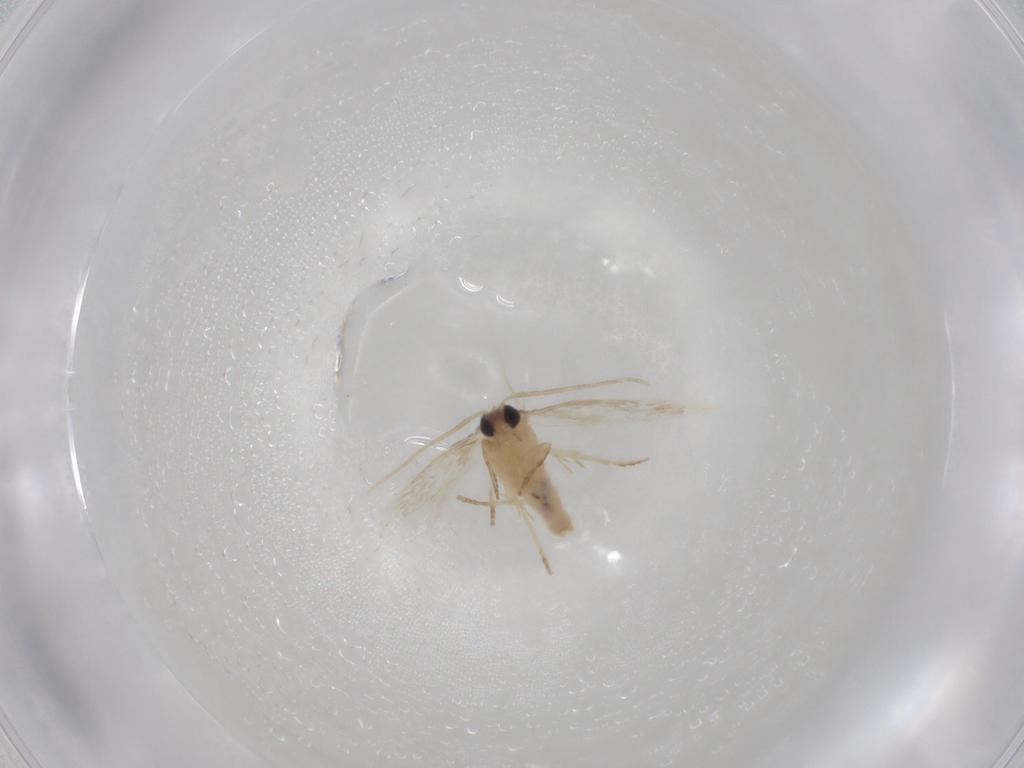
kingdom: Animalia
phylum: Arthropoda
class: Insecta
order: Lepidoptera
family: Nepticulidae
